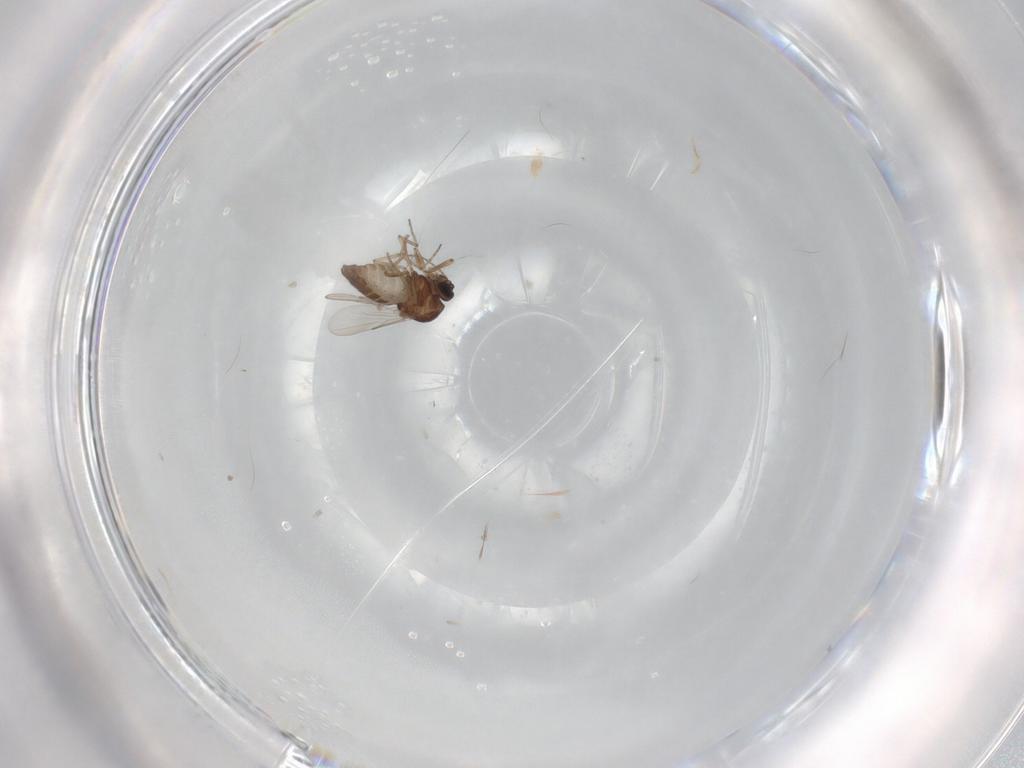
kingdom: Animalia
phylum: Arthropoda
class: Insecta
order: Diptera
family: Ceratopogonidae
